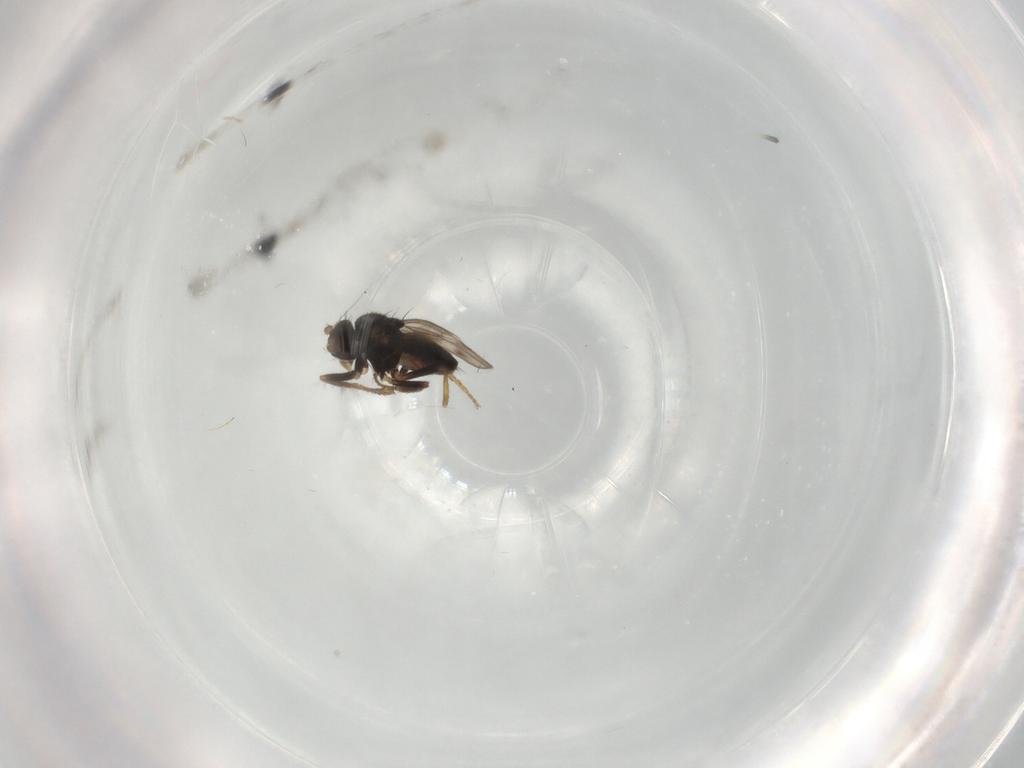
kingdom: Animalia
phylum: Arthropoda
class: Insecta
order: Diptera
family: Sphaeroceridae
